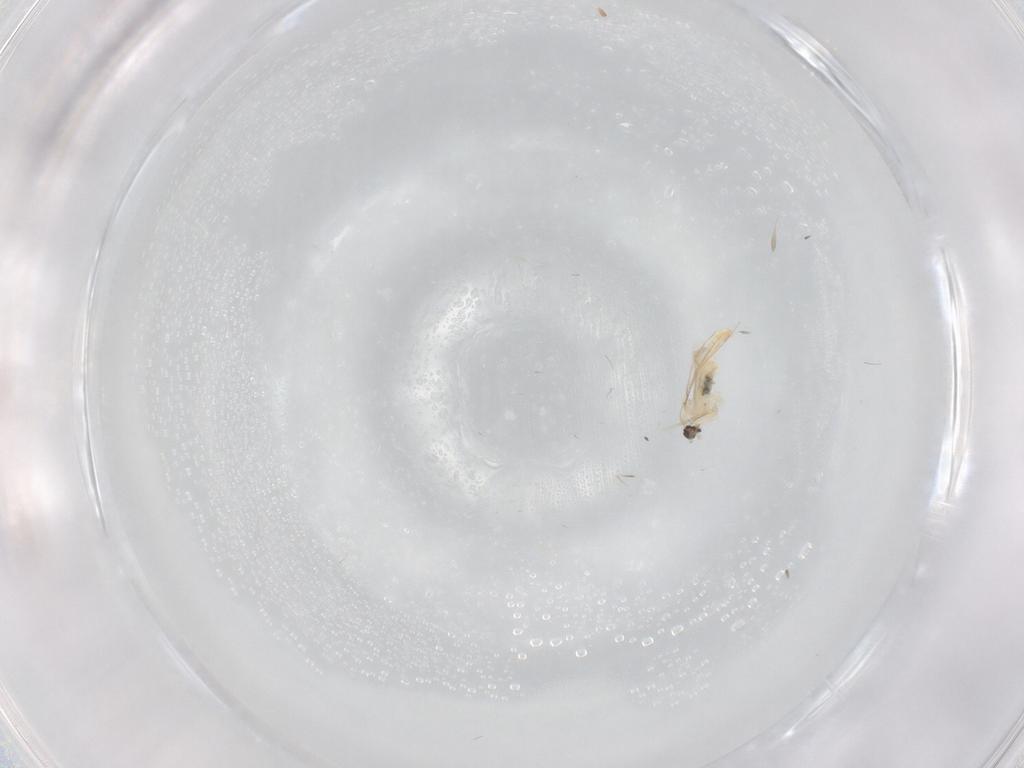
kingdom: Animalia
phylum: Arthropoda
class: Insecta
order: Diptera
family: Cecidomyiidae
